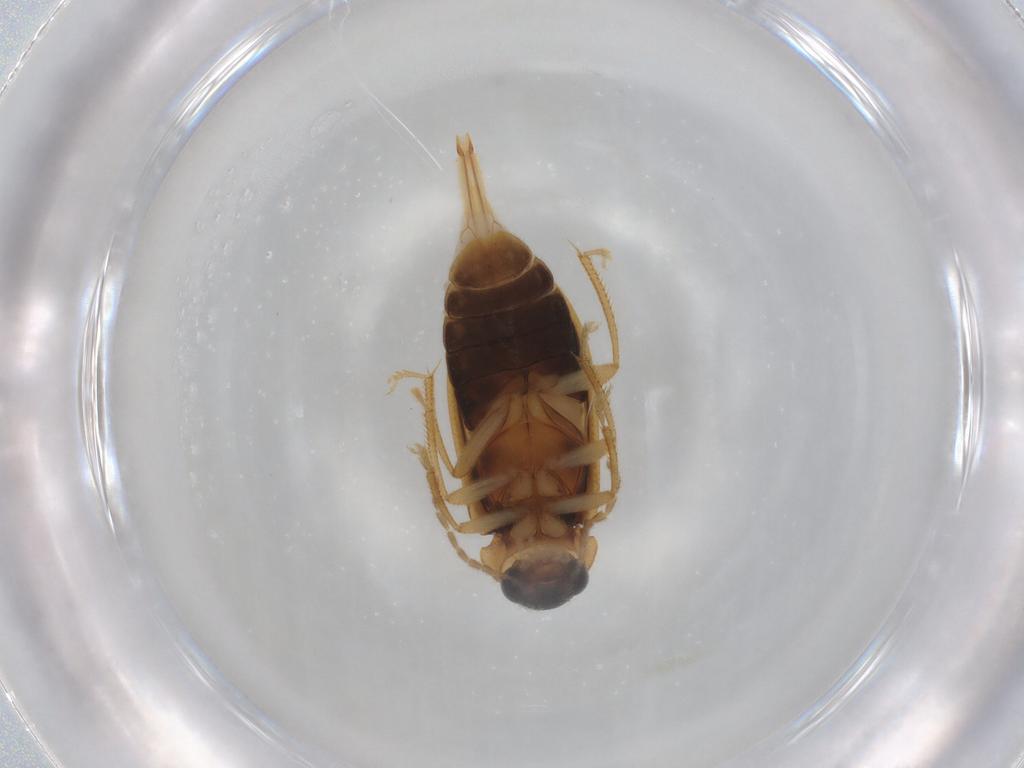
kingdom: Animalia
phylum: Arthropoda
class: Insecta
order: Coleoptera
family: Ptilodactylidae
